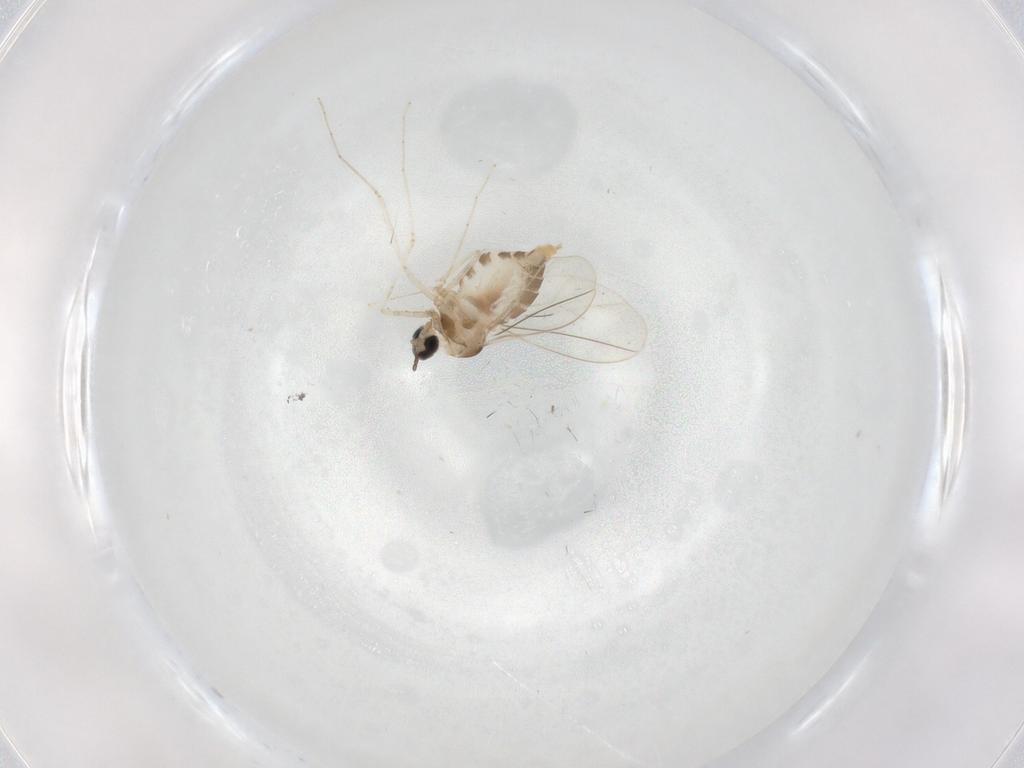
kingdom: Animalia
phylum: Arthropoda
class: Insecta
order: Diptera
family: Cecidomyiidae
